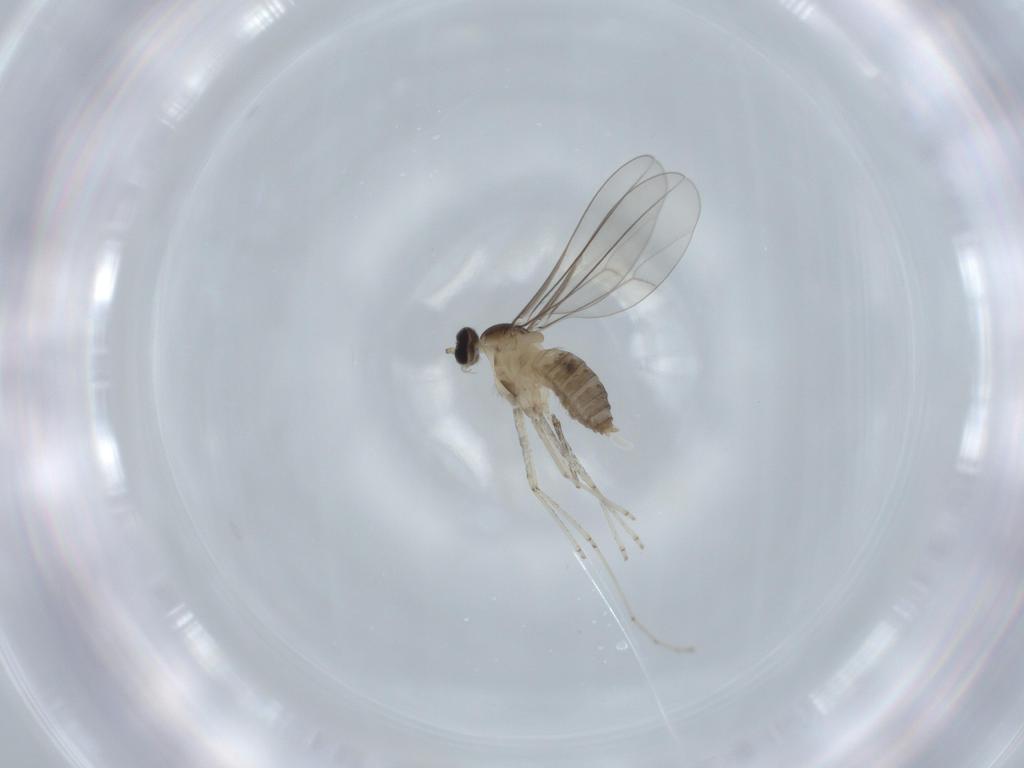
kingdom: Animalia
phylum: Arthropoda
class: Insecta
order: Diptera
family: Cecidomyiidae
